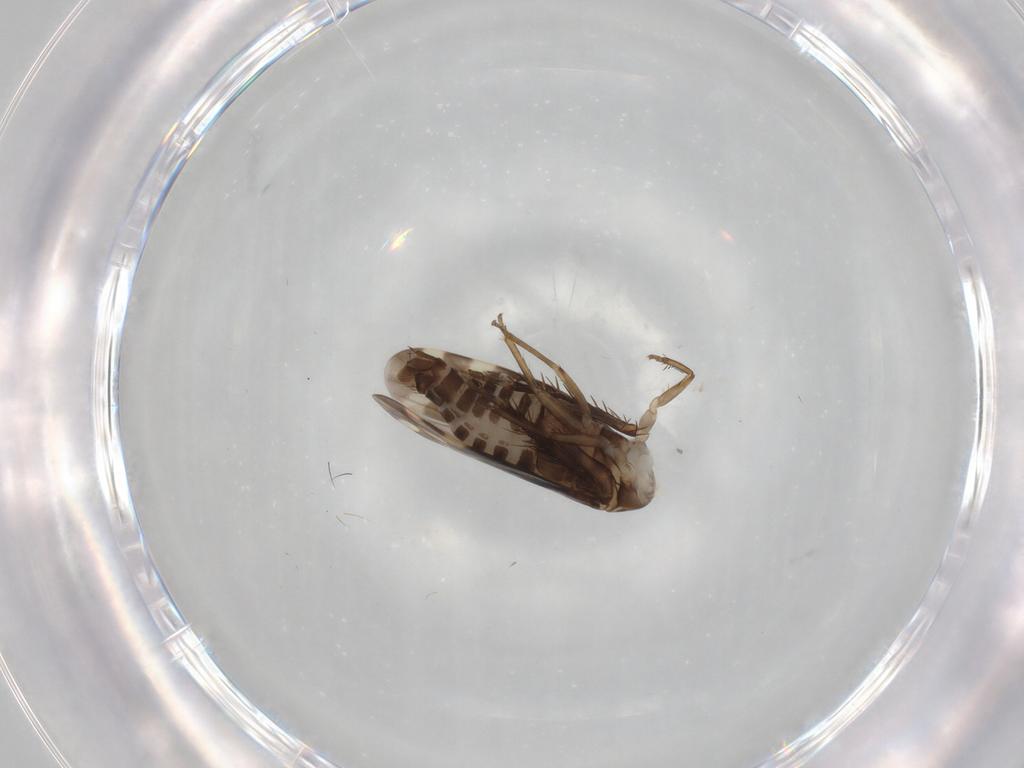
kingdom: Animalia
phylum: Arthropoda
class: Insecta
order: Hemiptera
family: Cicadellidae
